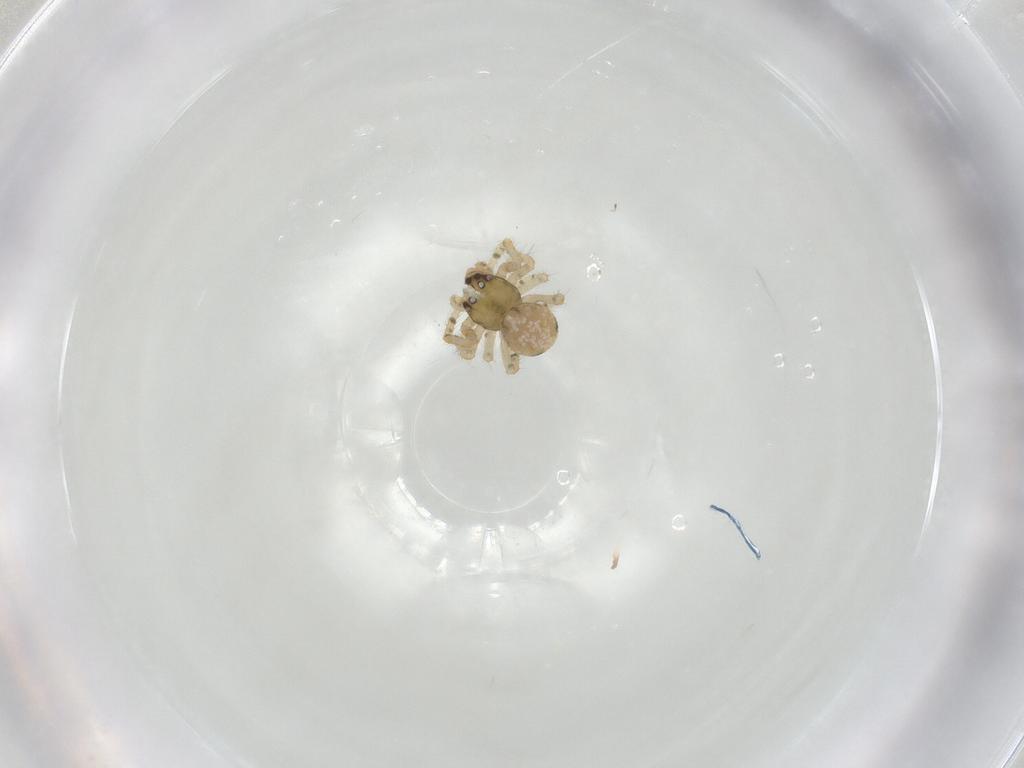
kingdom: Animalia
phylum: Arthropoda
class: Arachnida
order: Araneae
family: Theridiidae
